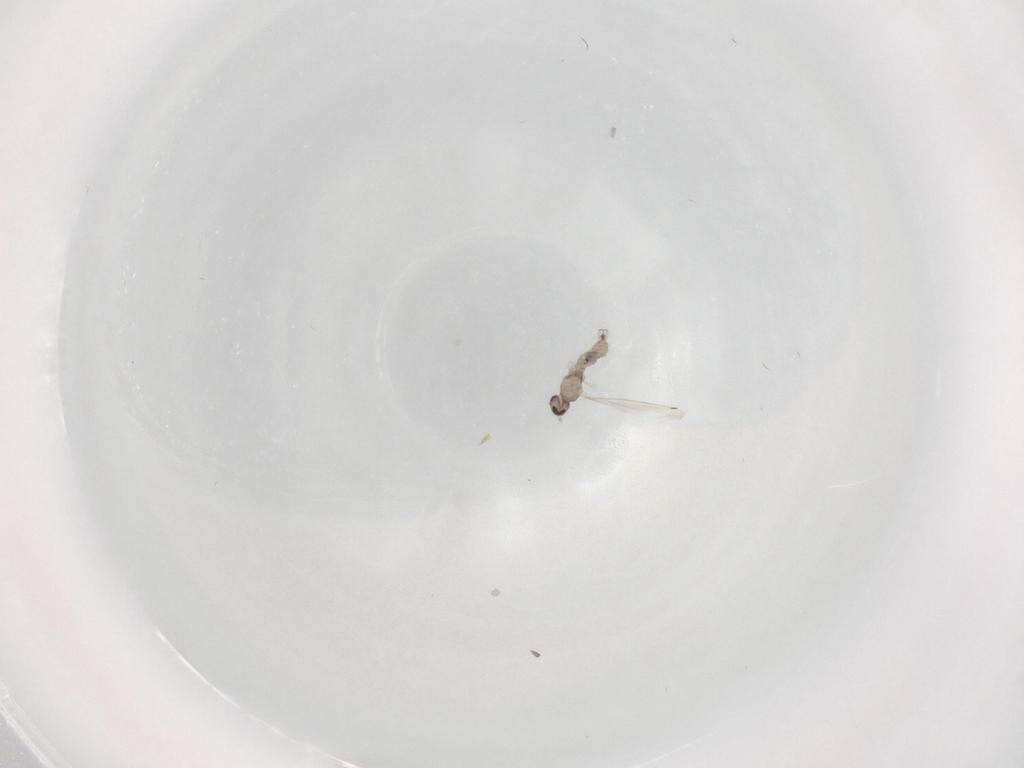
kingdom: Animalia
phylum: Arthropoda
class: Insecta
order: Diptera
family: Cecidomyiidae
